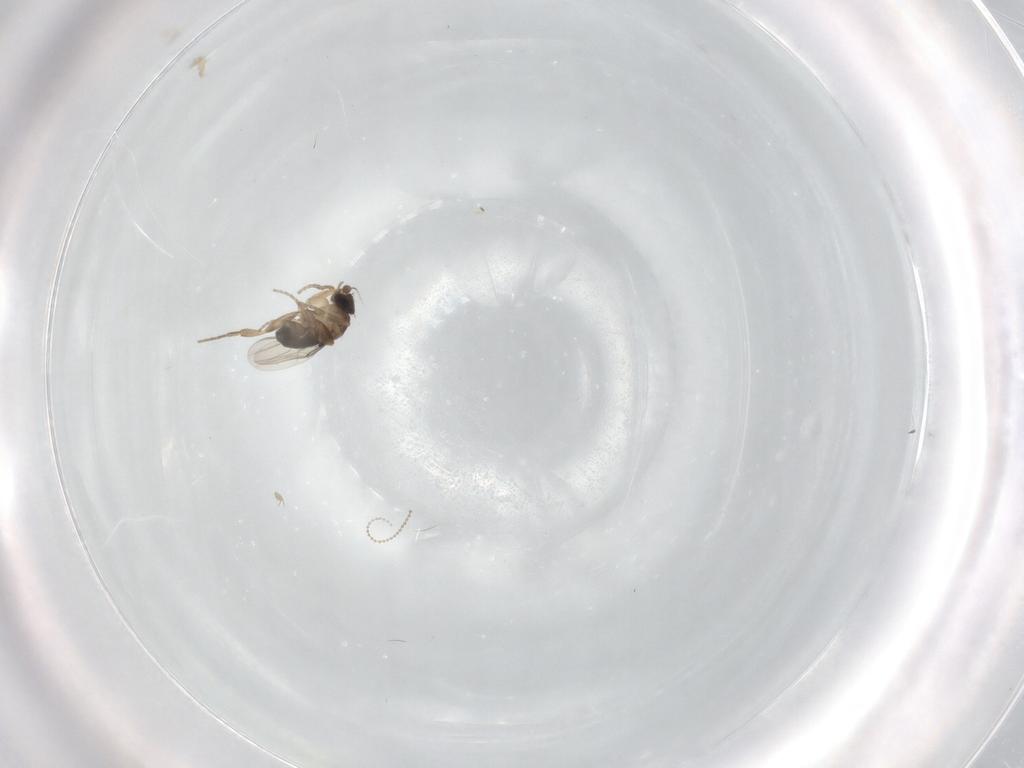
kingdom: Animalia
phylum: Arthropoda
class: Insecta
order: Diptera
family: Cecidomyiidae
